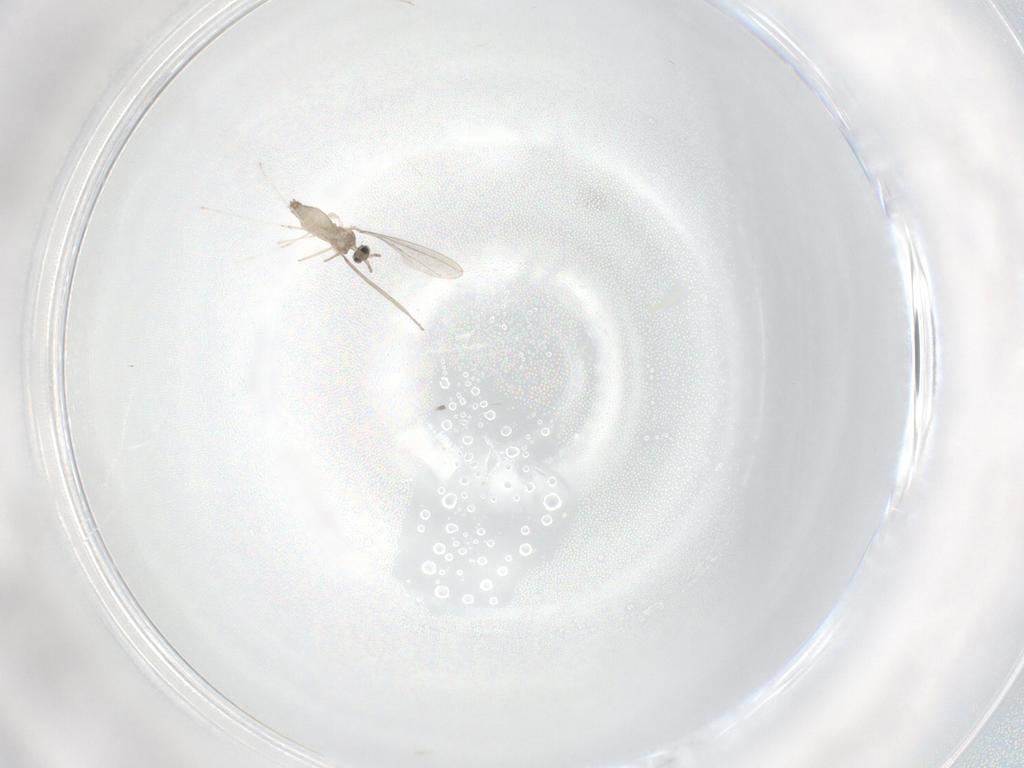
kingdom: Animalia
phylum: Arthropoda
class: Insecta
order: Diptera
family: Cecidomyiidae
